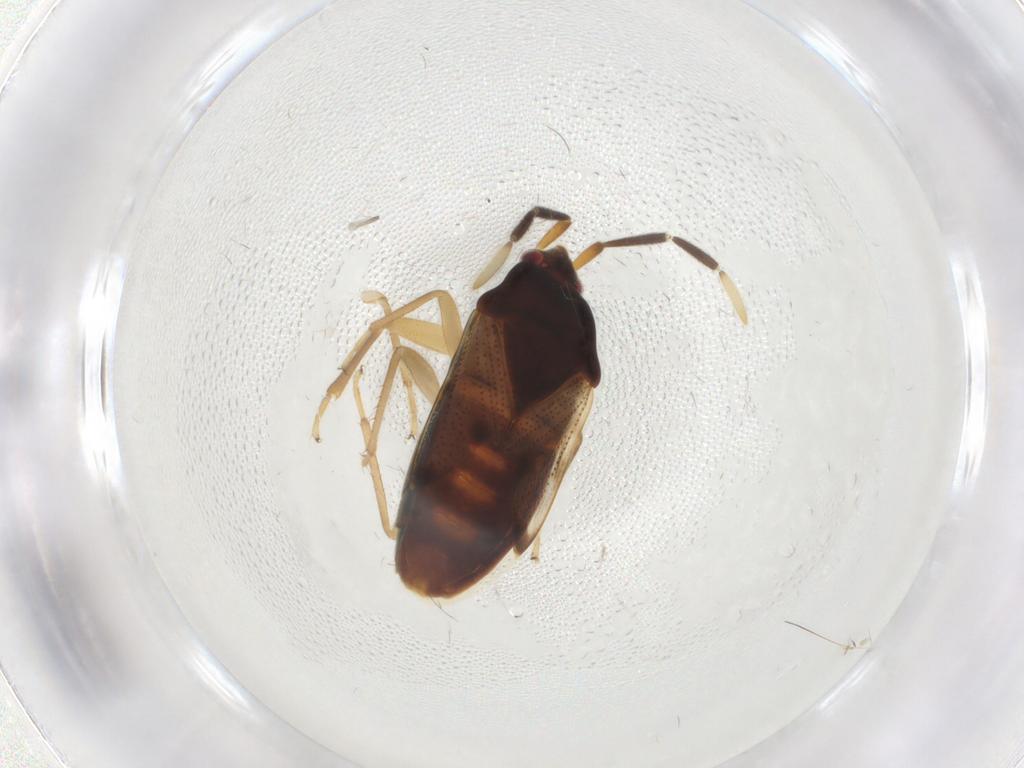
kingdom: Animalia
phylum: Arthropoda
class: Insecta
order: Hemiptera
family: Rhyparochromidae
